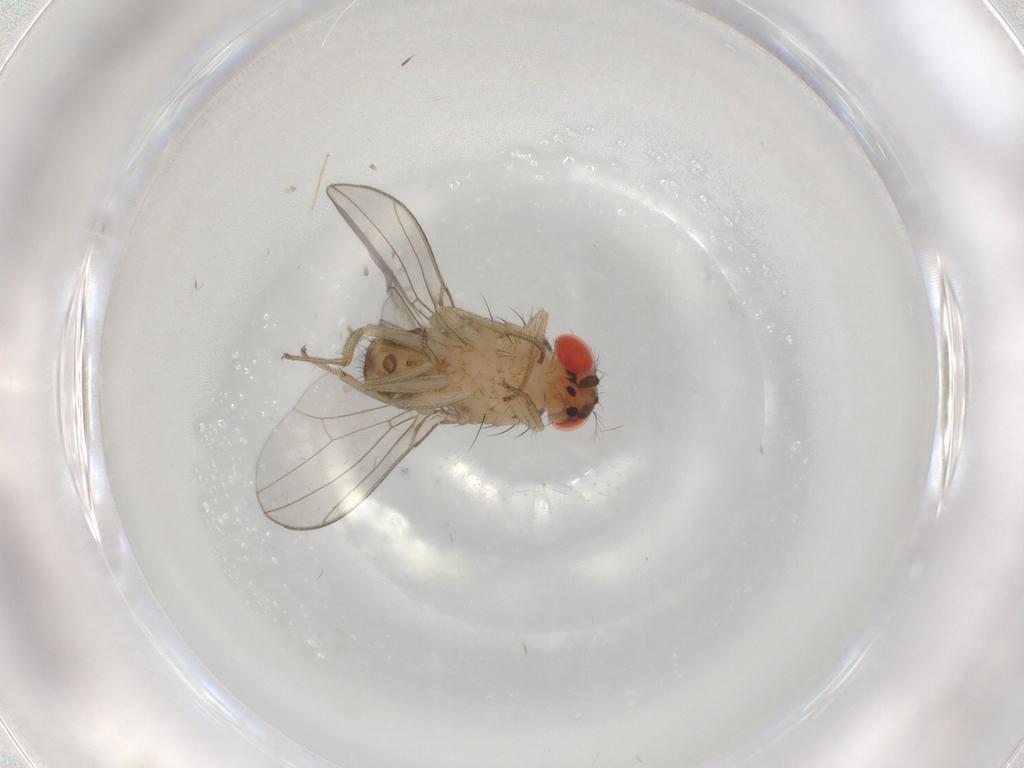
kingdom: Animalia
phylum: Arthropoda
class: Insecta
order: Diptera
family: Drosophilidae
